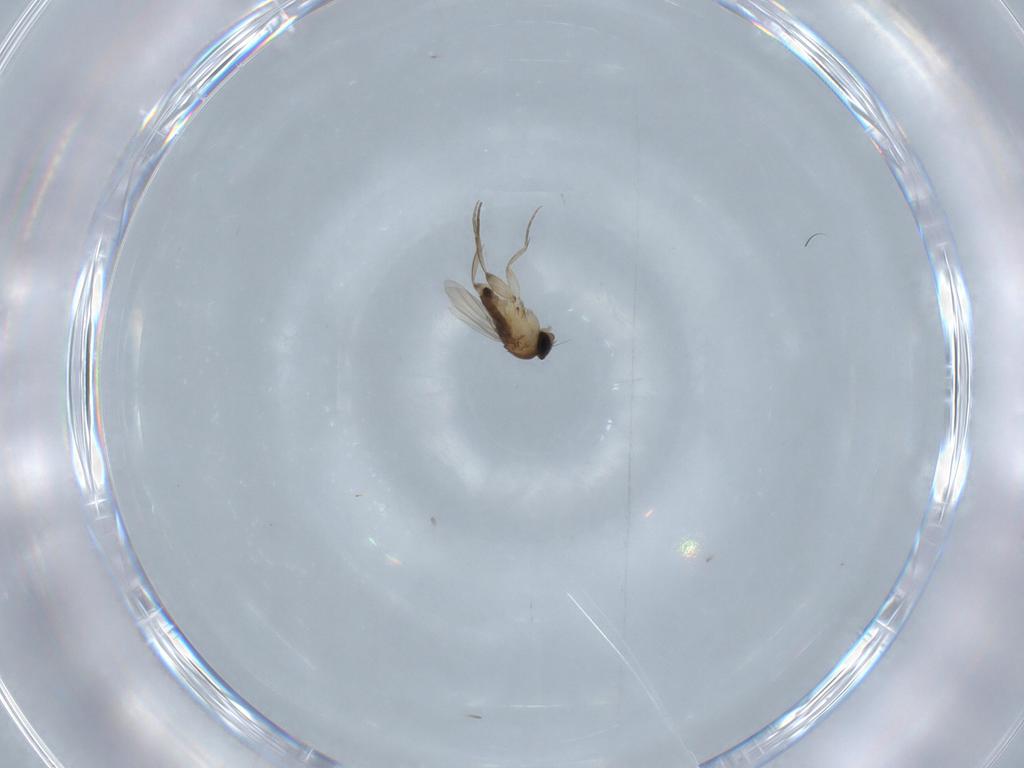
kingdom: Animalia
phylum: Arthropoda
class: Insecta
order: Diptera
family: Phoridae
